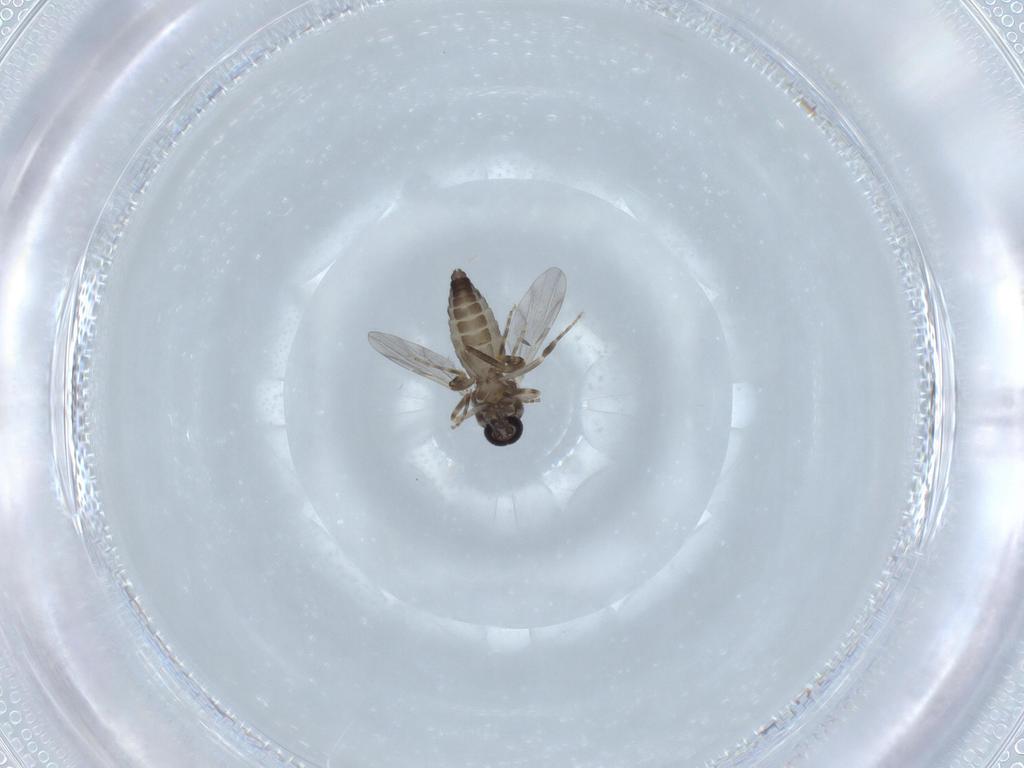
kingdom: Animalia
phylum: Arthropoda
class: Insecta
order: Diptera
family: Ceratopogonidae
